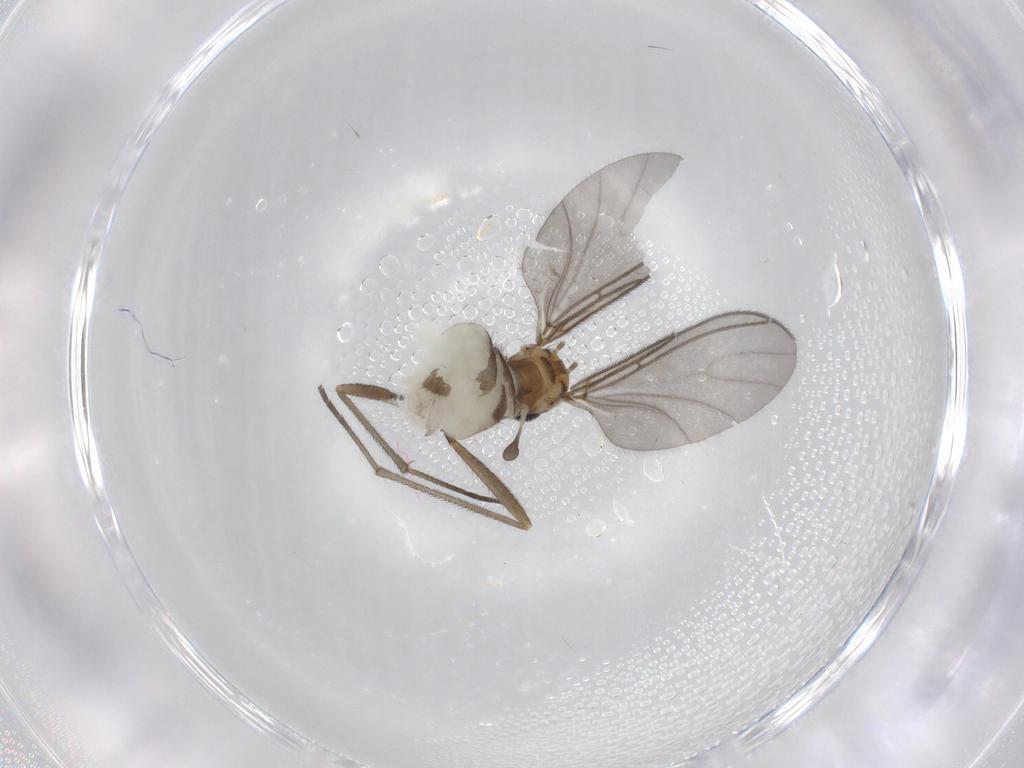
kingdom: Animalia
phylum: Arthropoda
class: Insecta
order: Diptera
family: Sciaridae
